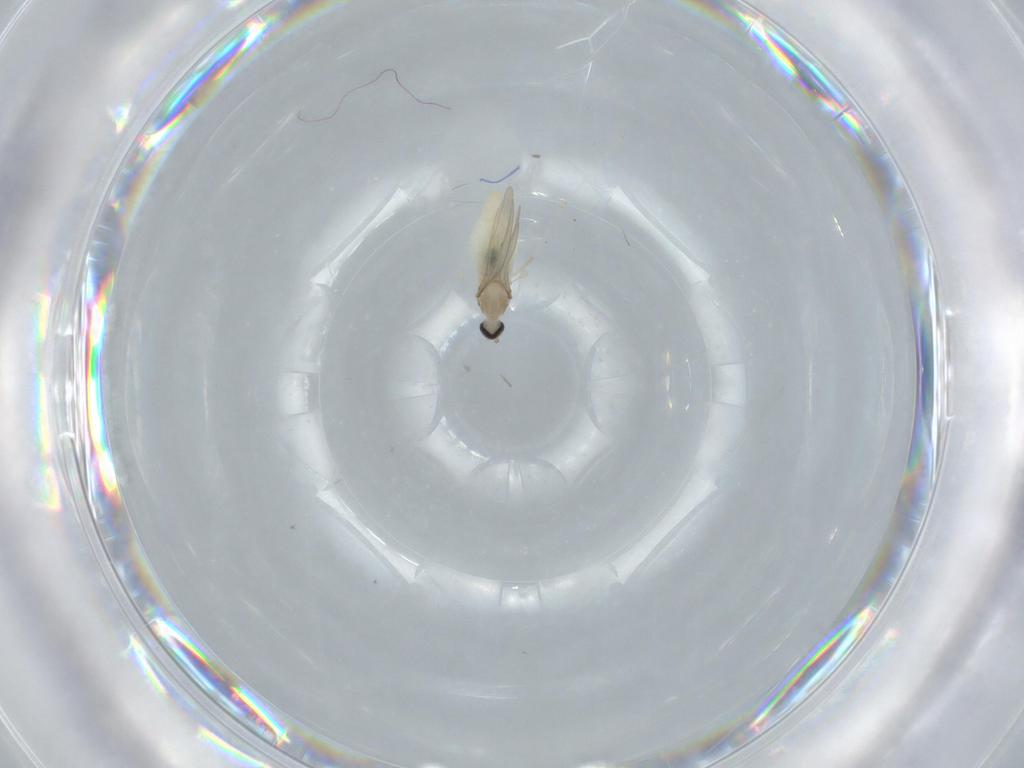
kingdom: Animalia
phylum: Arthropoda
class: Insecta
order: Diptera
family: Cecidomyiidae
